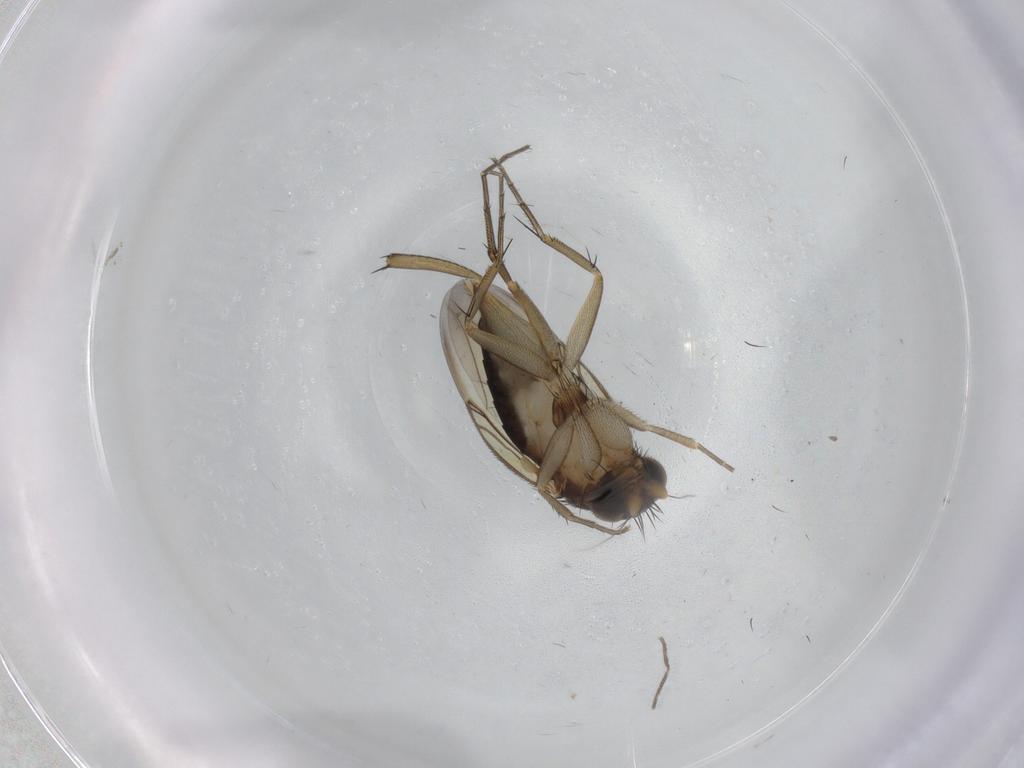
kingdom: Animalia
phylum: Arthropoda
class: Insecta
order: Diptera
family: Phoridae
